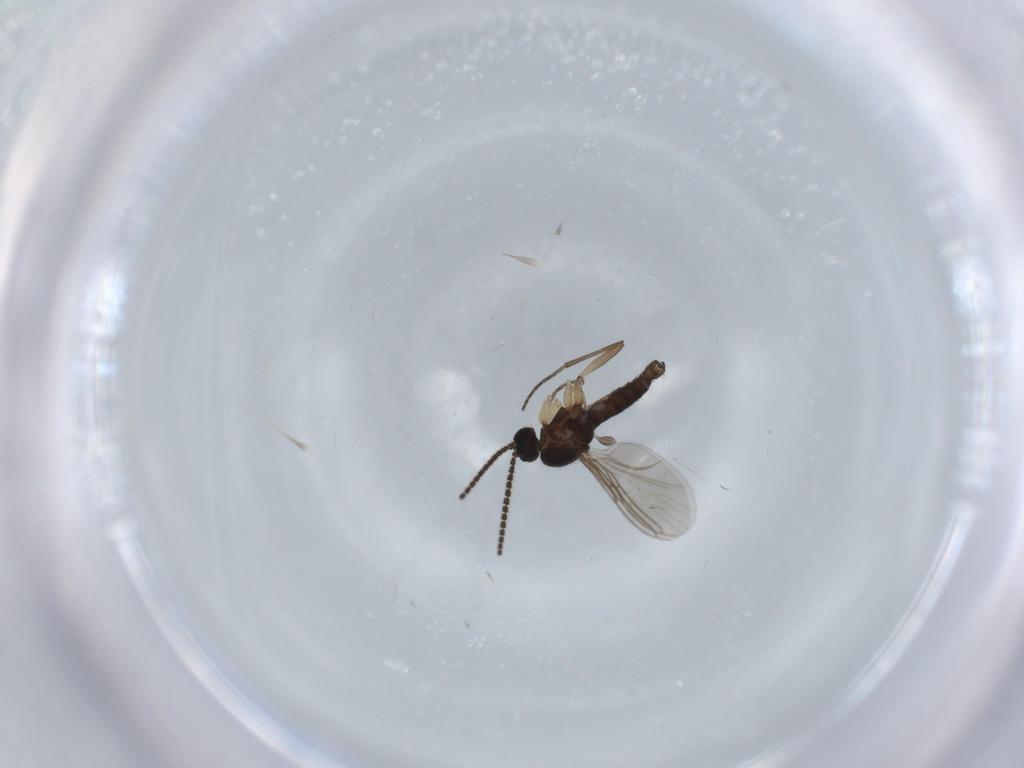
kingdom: Animalia
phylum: Arthropoda
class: Insecta
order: Diptera
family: Sciaridae
